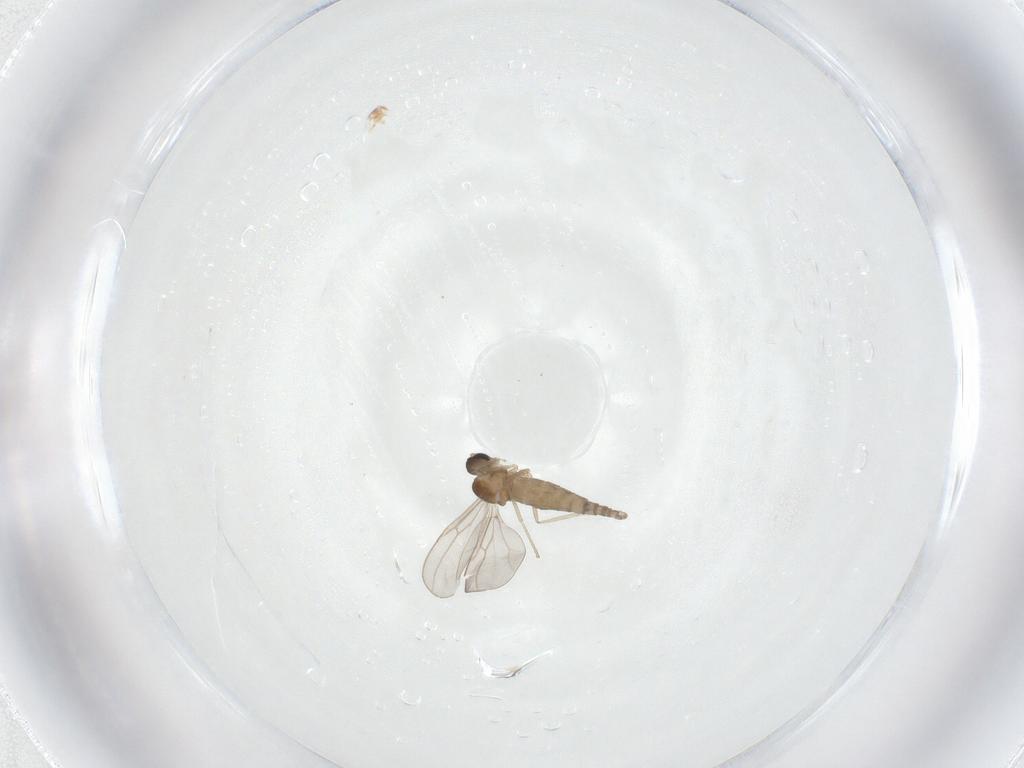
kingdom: Animalia
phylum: Arthropoda
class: Insecta
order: Diptera
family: Cecidomyiidae
